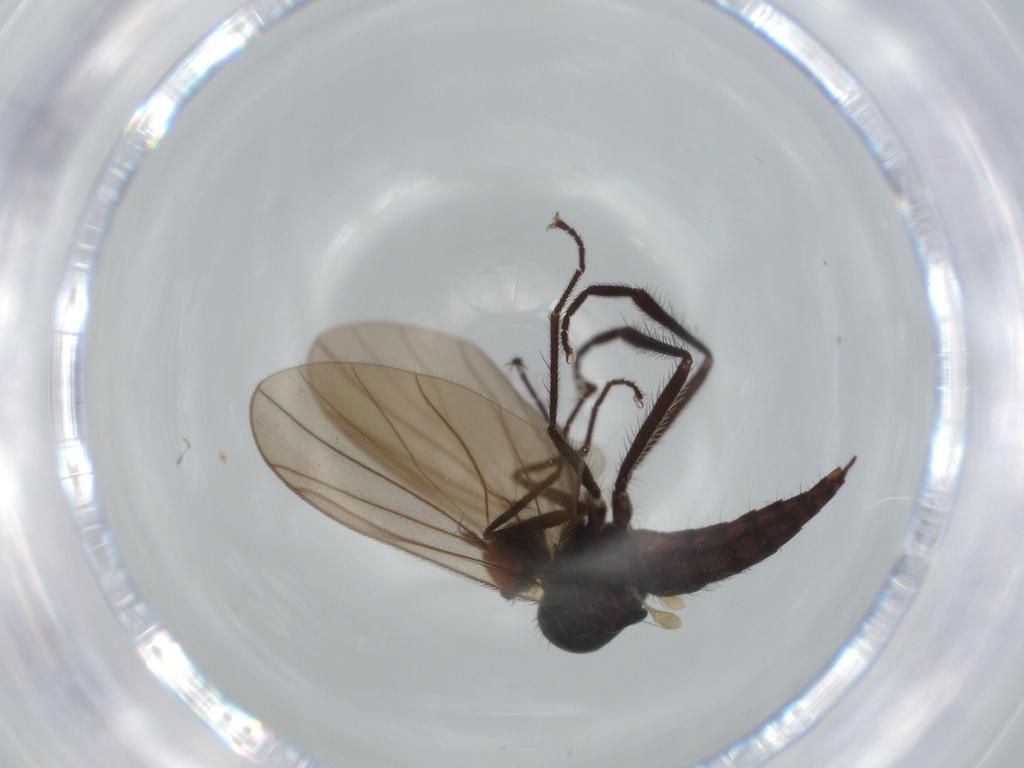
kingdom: Animalia
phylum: Arthropoda
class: Insecta
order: Diptera
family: Hybotidae
